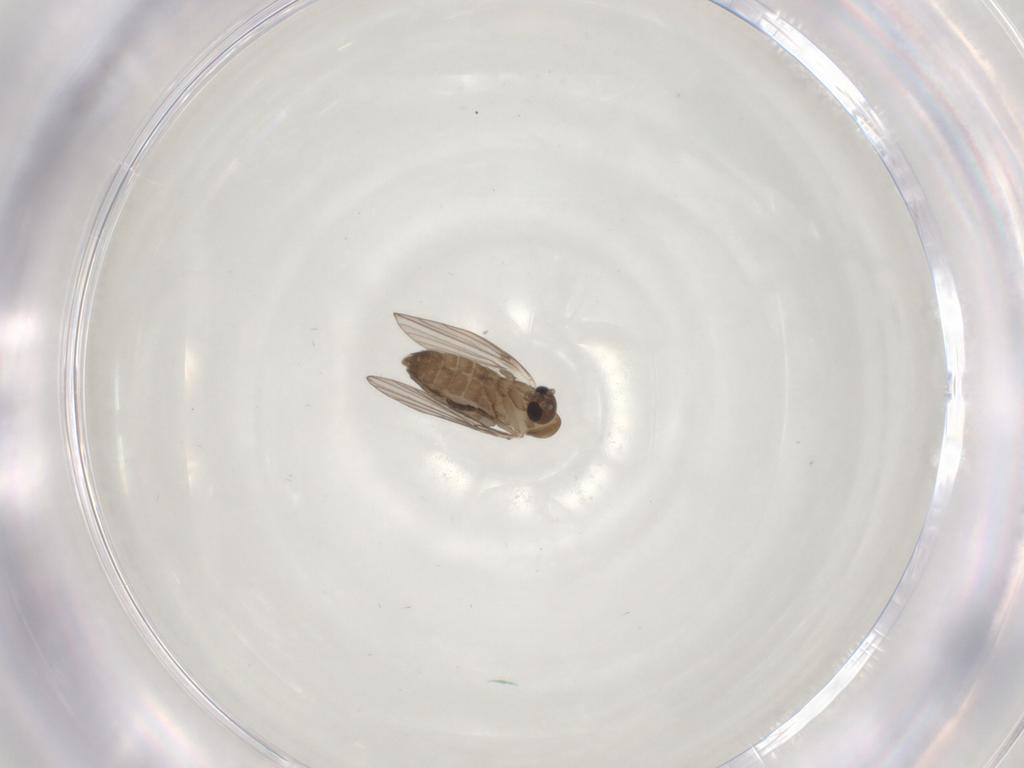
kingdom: Animalia
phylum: Arthropoda
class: Insecta
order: Diptera
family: Psychodidae
